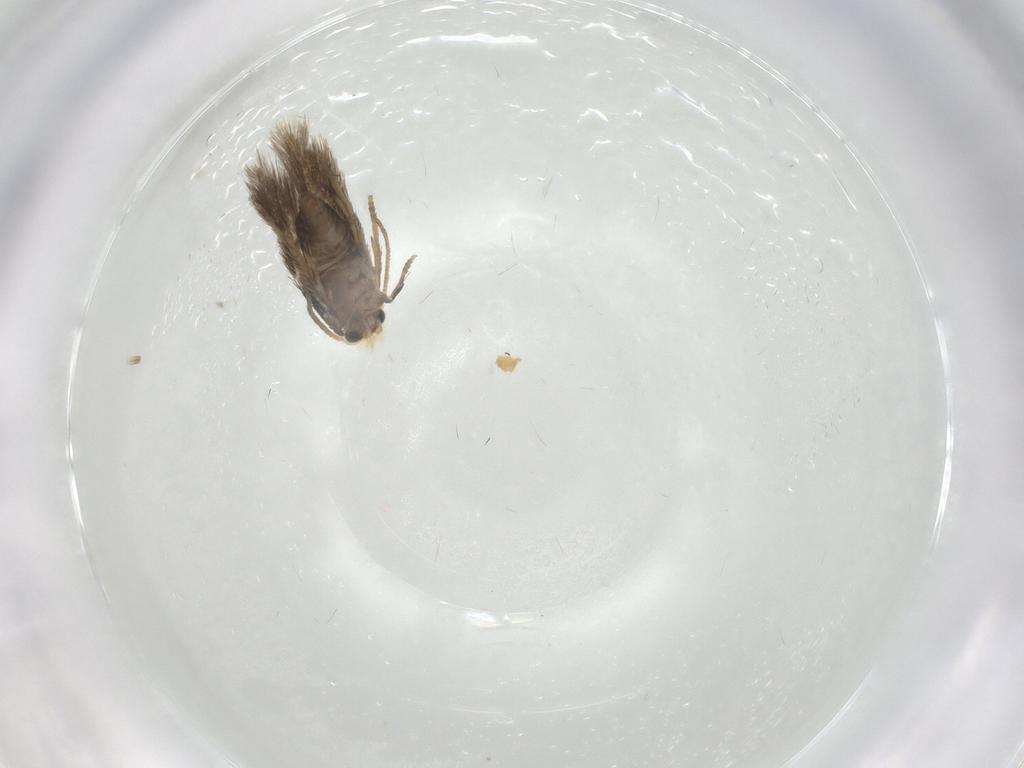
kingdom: Animalia
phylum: Arthropoda
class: Insecta
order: Lepidoptera
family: Nepticulidae
